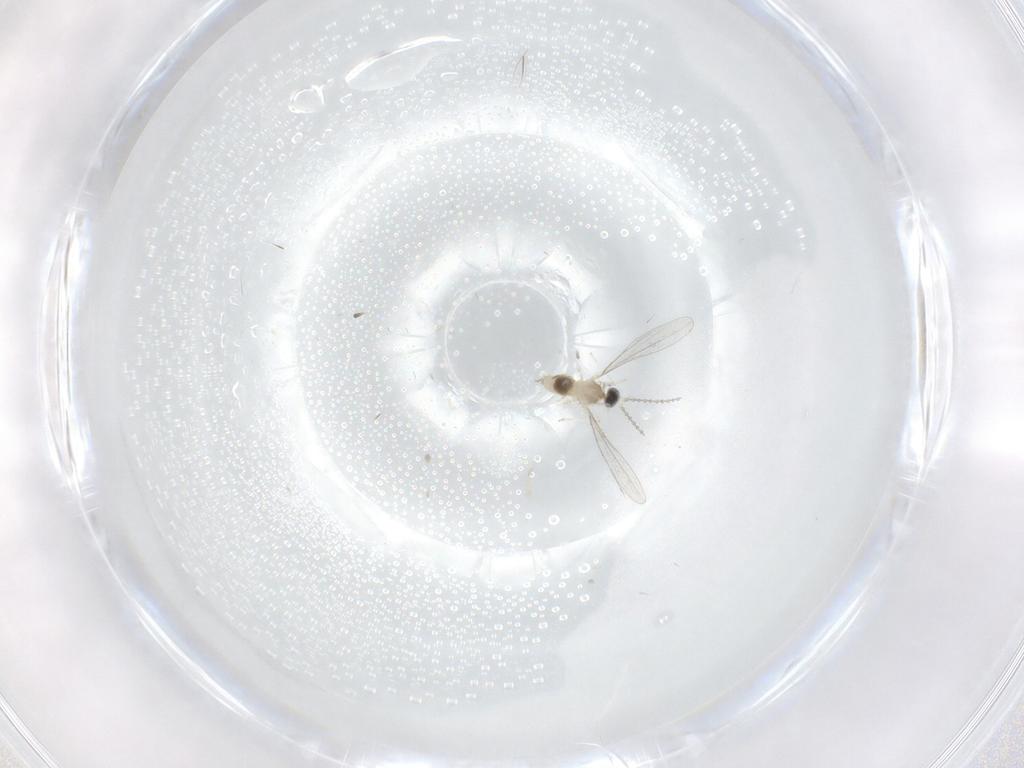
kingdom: Animalia
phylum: Arthropoda
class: Insecta
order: Diptera
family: Cecidomyiidae
